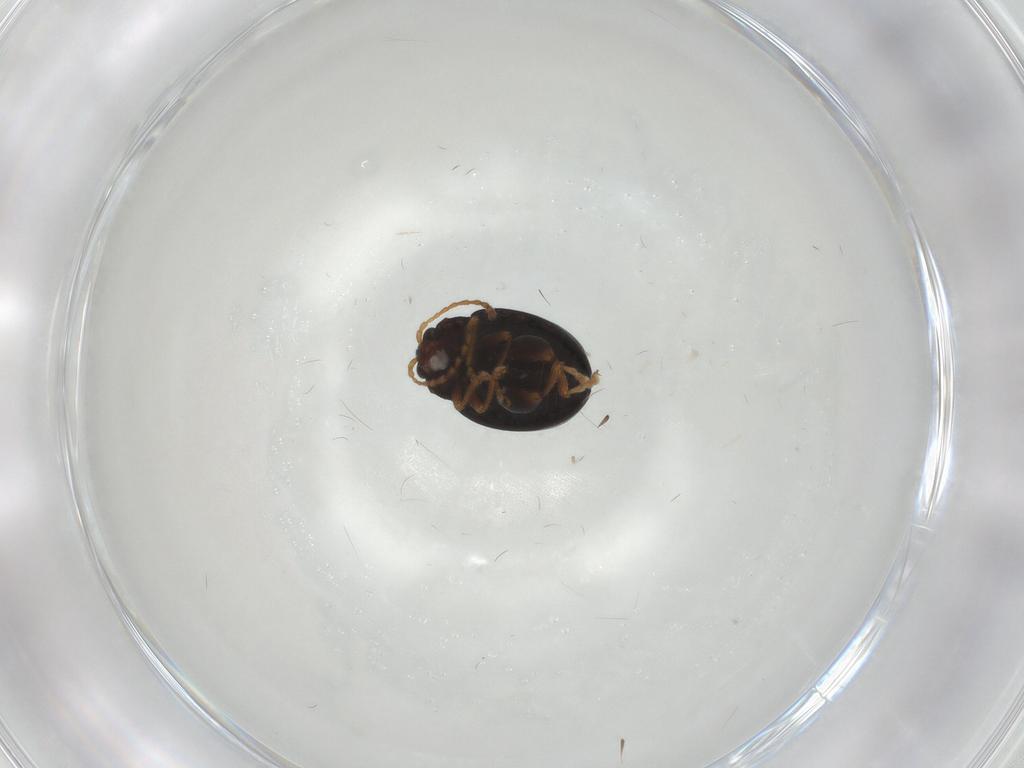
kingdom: Animalia
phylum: Arthropoda
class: Insecta
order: Coleoptera
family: Chrysomelidae
